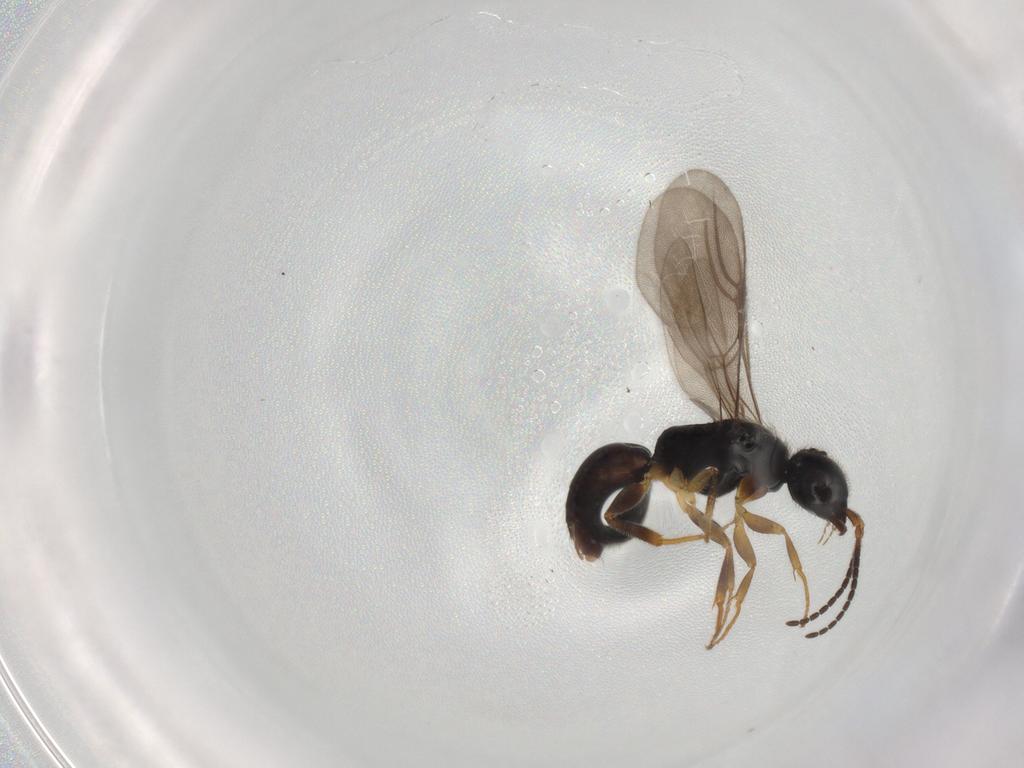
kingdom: Animalia
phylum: Arthropoda
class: Insecta
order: Hymenoptera
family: Bethylidae
